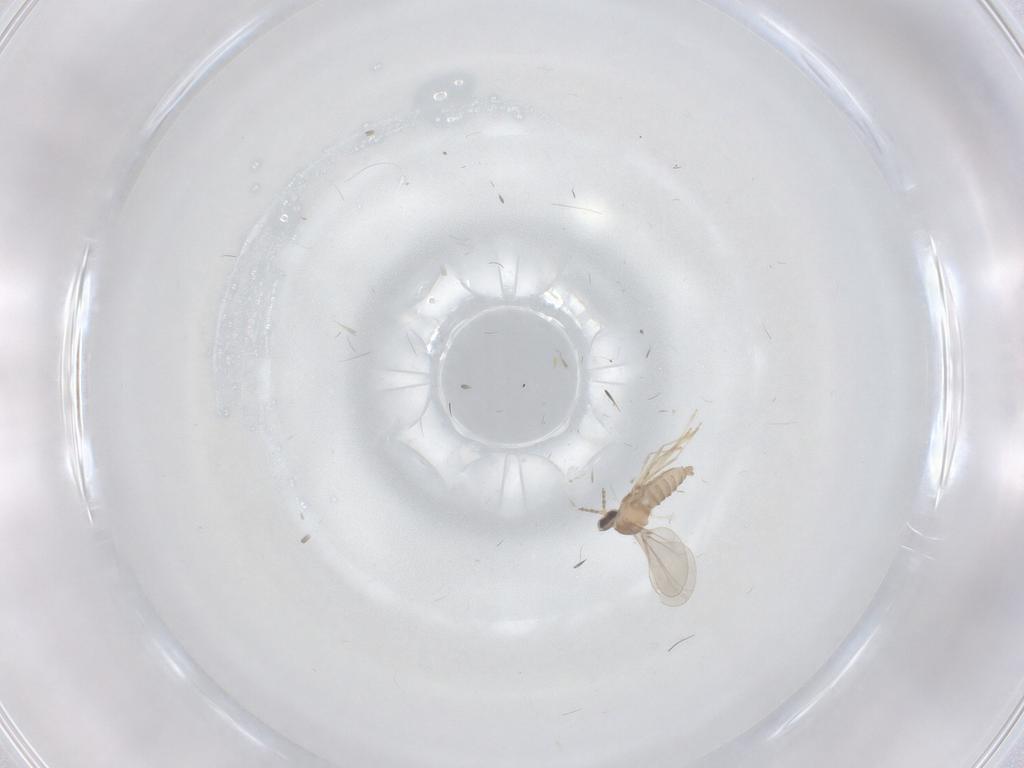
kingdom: Animalia
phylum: Arthropoda
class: Insecta
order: Diptera
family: Cecidomyiidae
